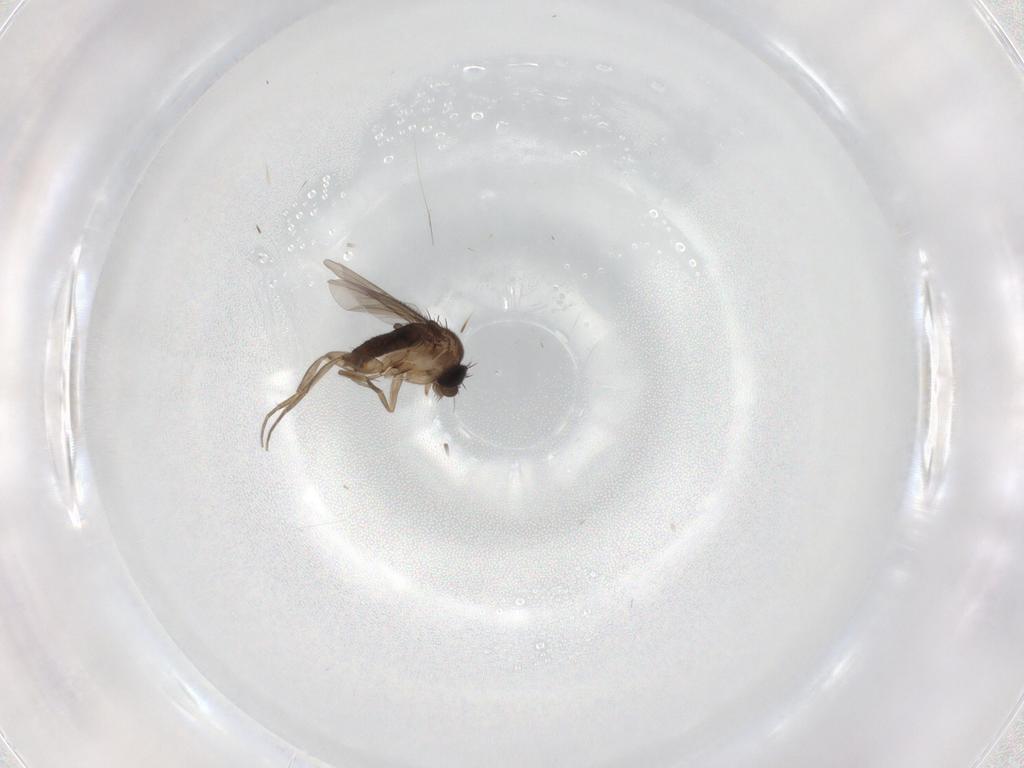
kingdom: Animalia
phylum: Arthropoda
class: Insecta
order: Diptera
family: Phoridae
